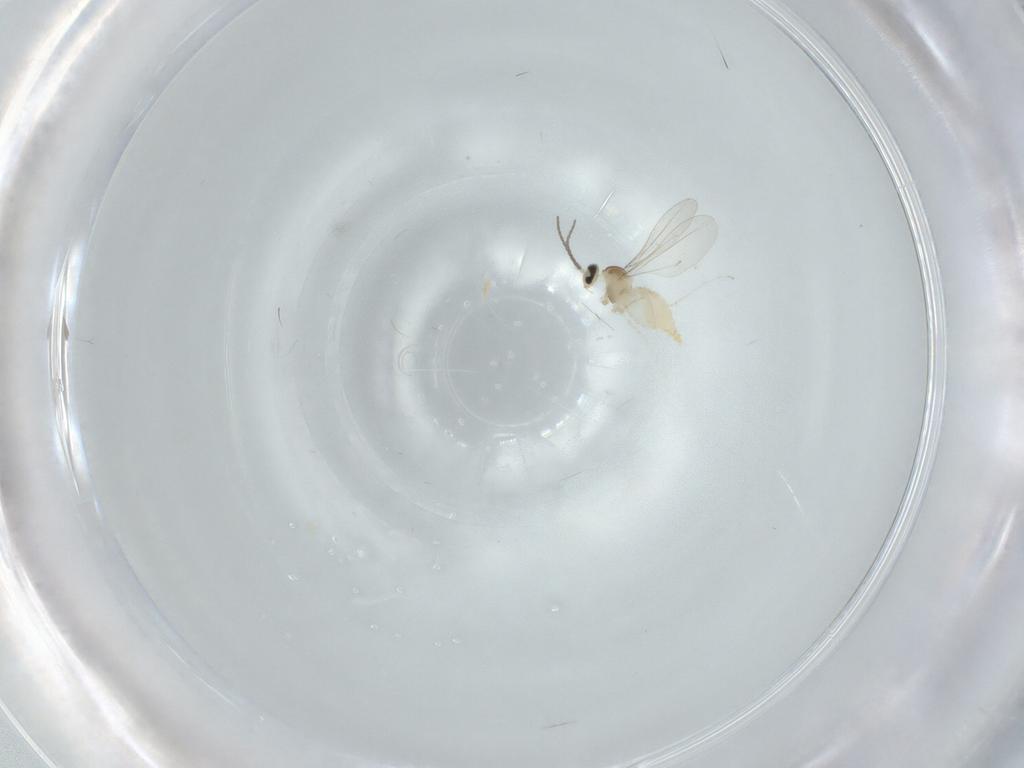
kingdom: Animalia
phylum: Arthropoda
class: Insecta
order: Diptera
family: Cecidomyiidae
